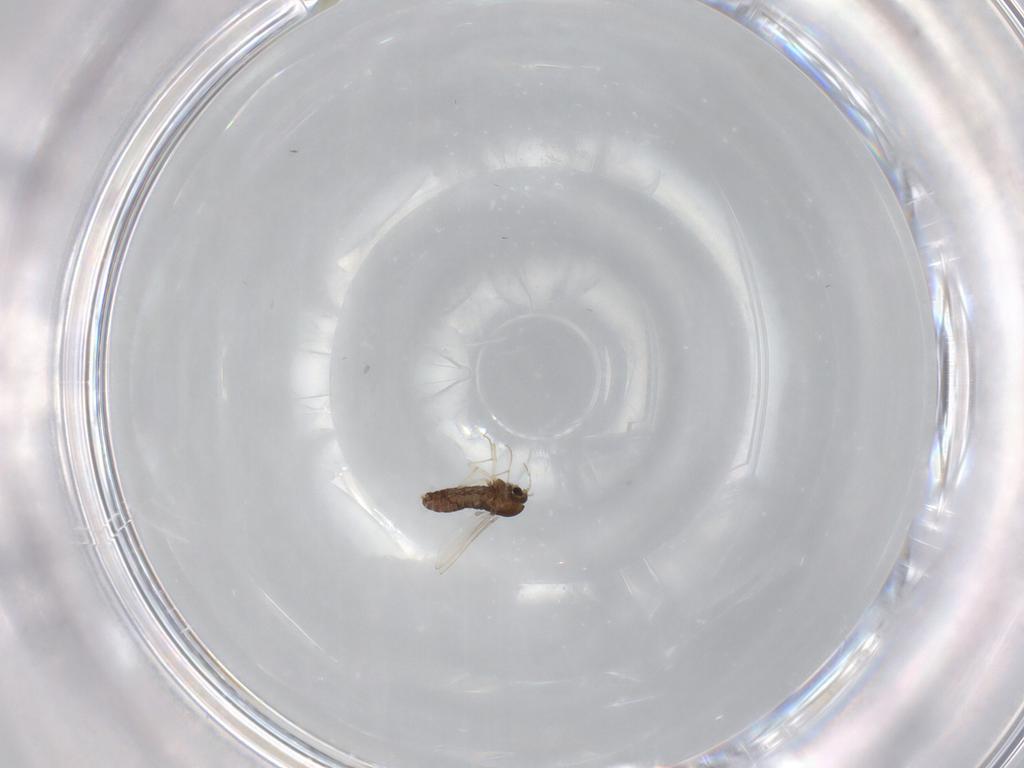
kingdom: Animalia
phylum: Arthropoda
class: Insecta
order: Diptera
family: Chironomidae
